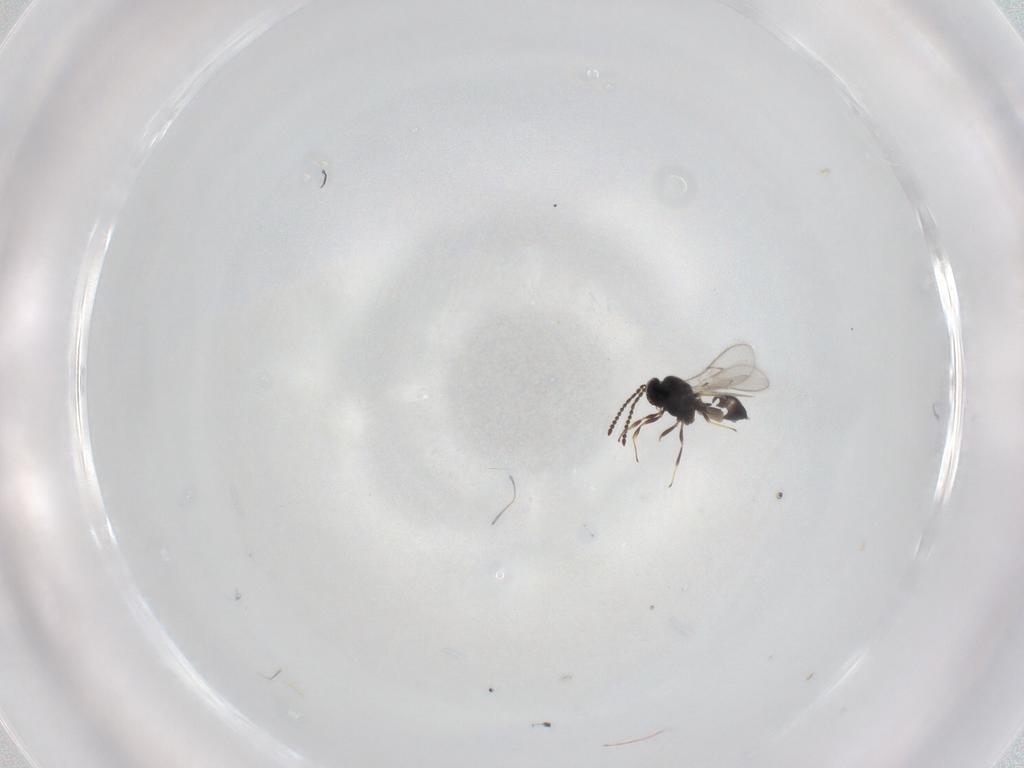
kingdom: Animalia
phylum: Arthropoda
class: Insecta
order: Hymenoptera
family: Scelionidae
